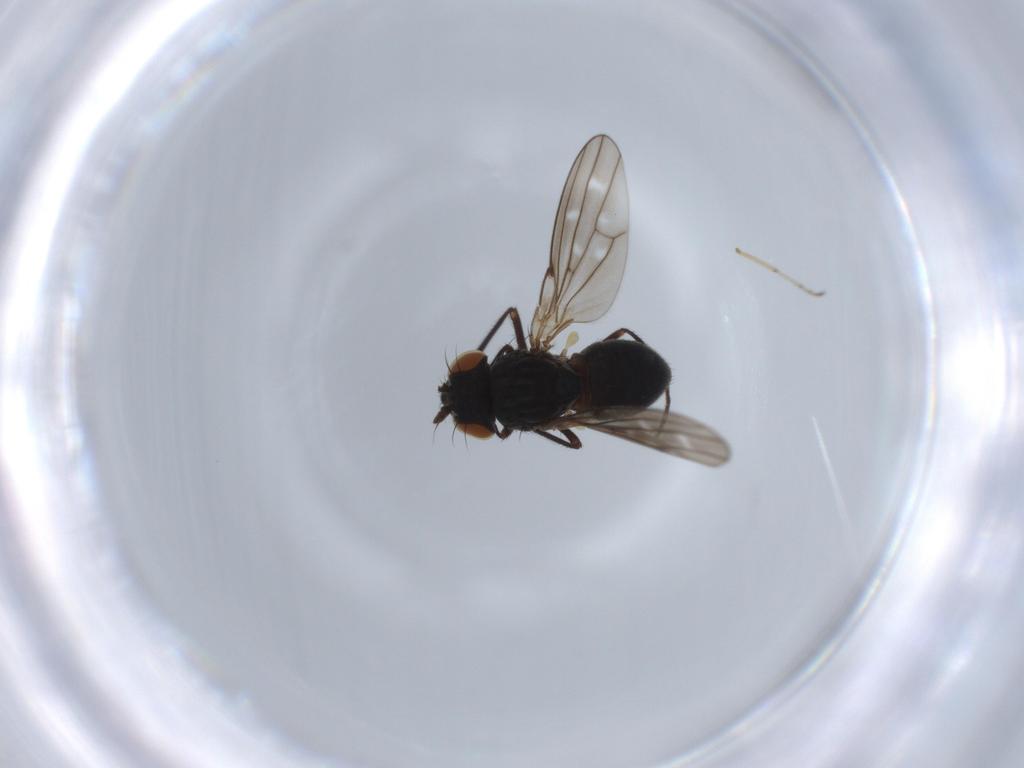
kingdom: Animalia
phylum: Arthropoda
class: Insecta
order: Diptera
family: Ephydridae
